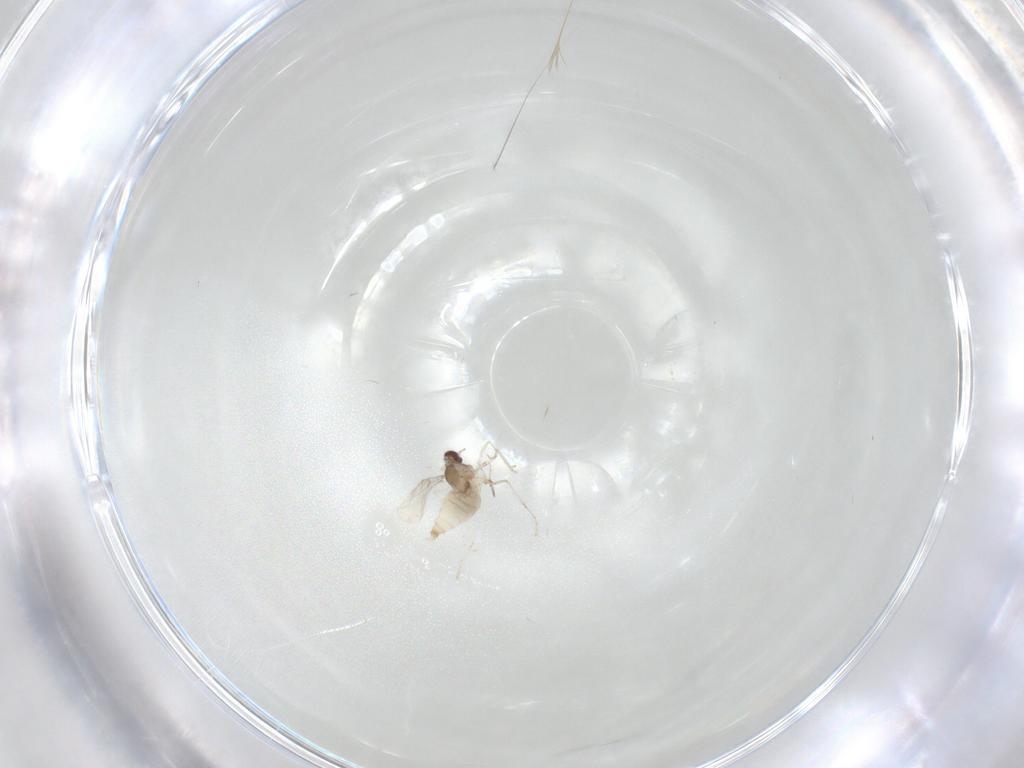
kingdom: Animalia
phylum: Arthropoda
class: Insecta
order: Diptera
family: Cecidomyiidae
